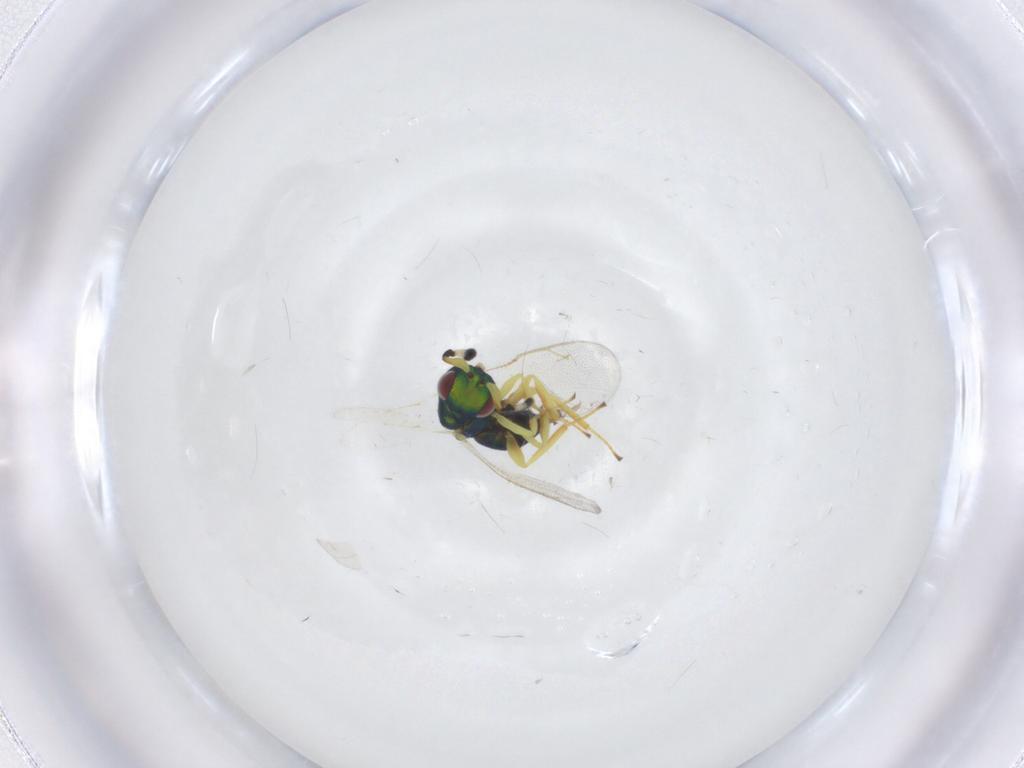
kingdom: Animalia
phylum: Arthropoda
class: Insecta
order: Hymenoptera
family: Pteromalidae
